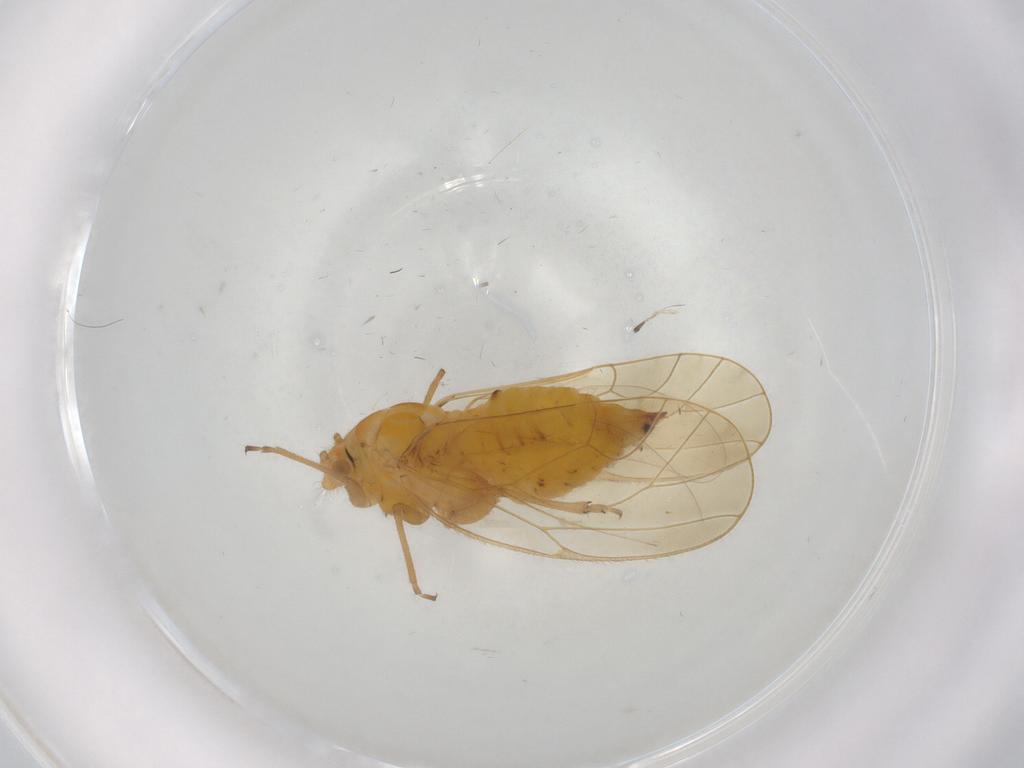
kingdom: Animalia
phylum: Arthropoda
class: Insecta
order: Hemiptera
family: Psyllidae
